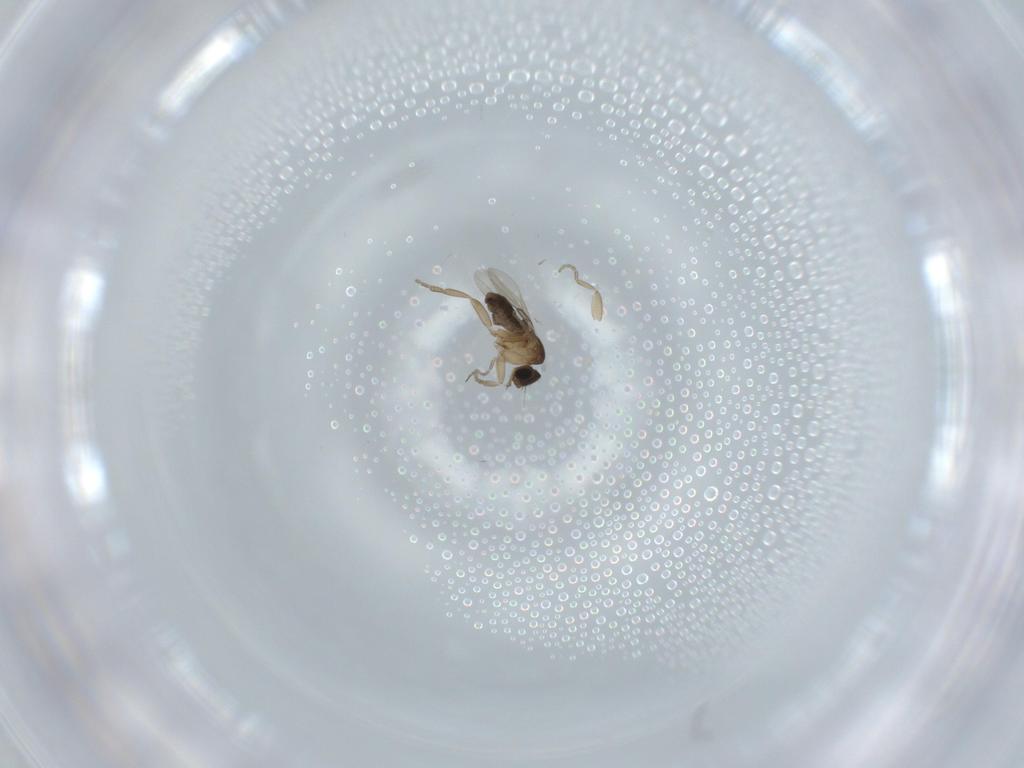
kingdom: Animalia
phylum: Arthropoda
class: Insecta
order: Diptera
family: Phoridae
